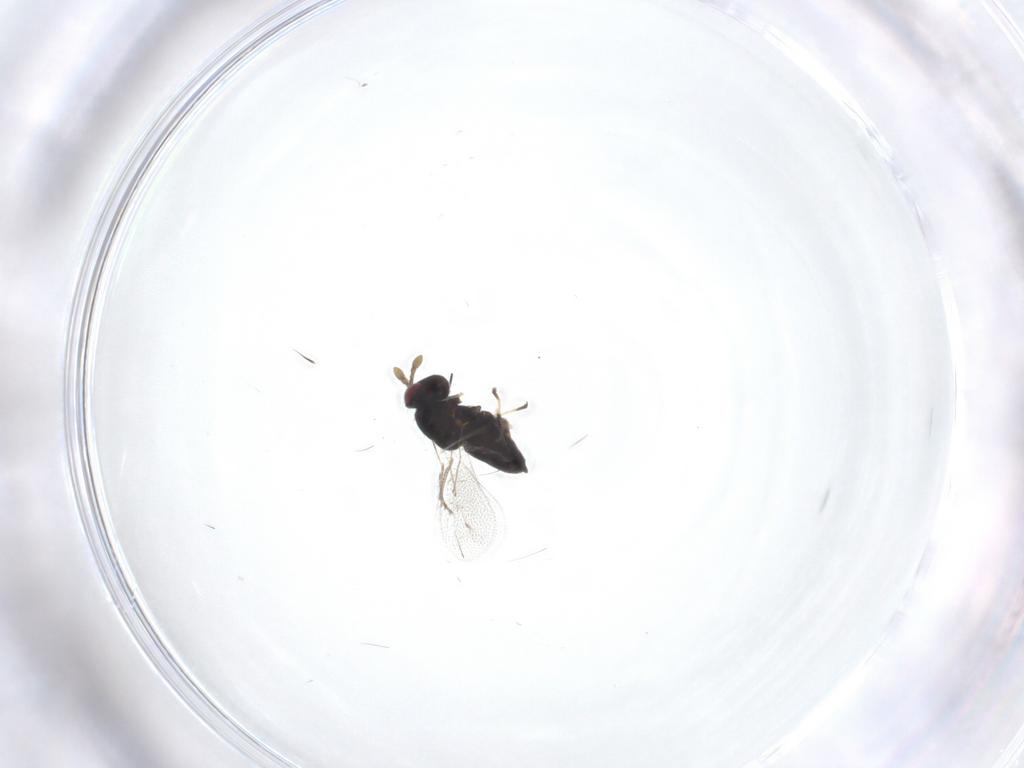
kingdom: Animalia
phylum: Arthropoda
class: Insecta
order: Hymenoptera
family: Eulophidae
